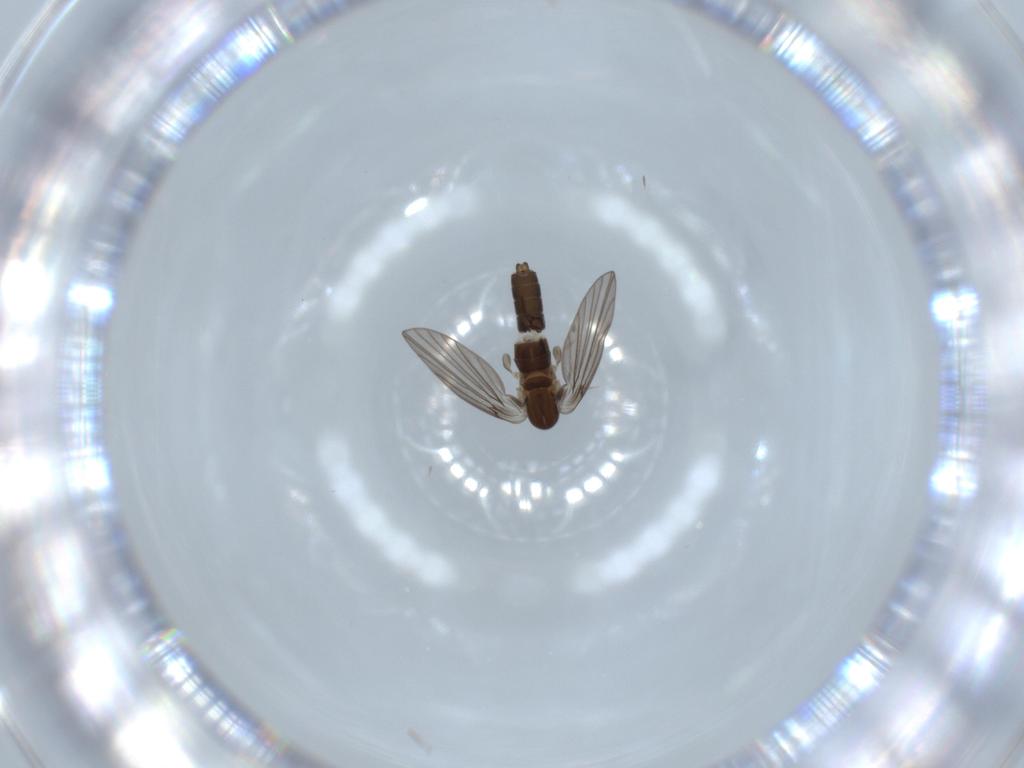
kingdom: Animalia
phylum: Arthropoda
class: Insecta
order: Diptera
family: Psychodidae
